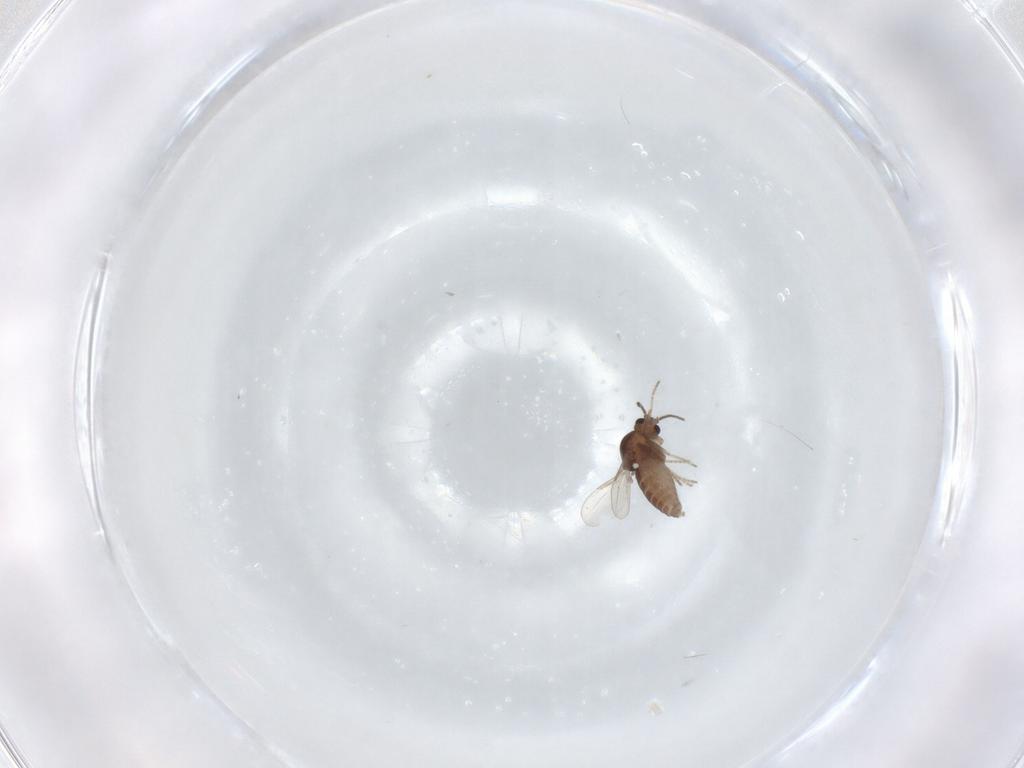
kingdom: Animalia
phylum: Arthropoda
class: Insecta
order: Diptera
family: Ceratopogonidae
